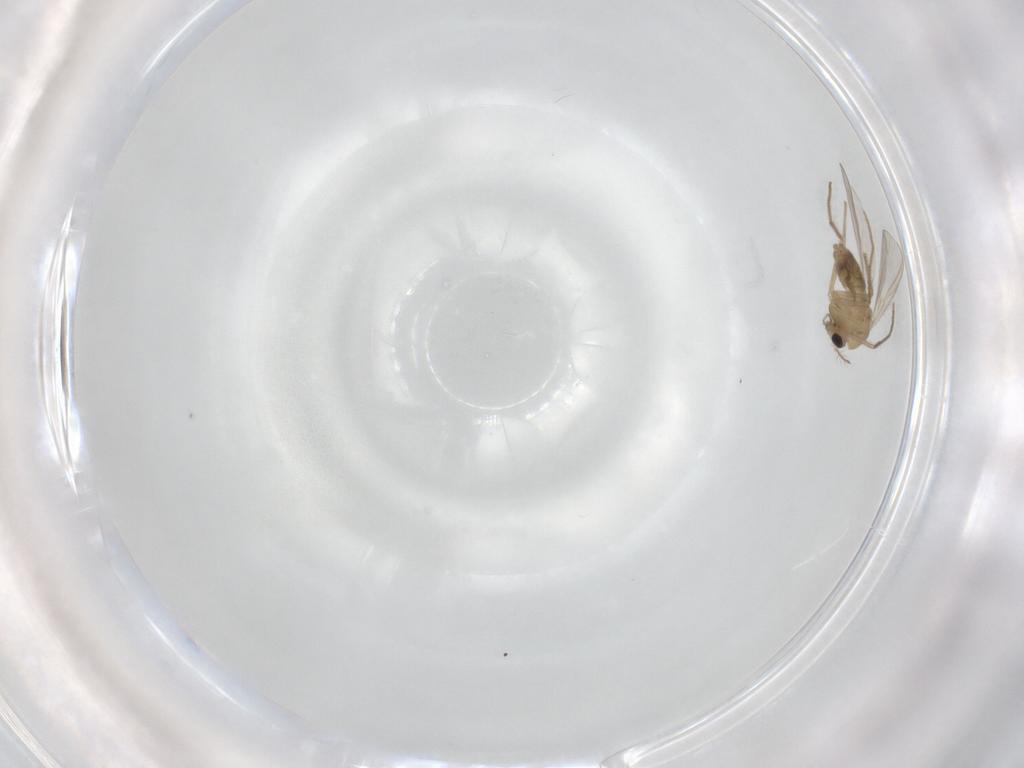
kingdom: Animalia
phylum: Arthropoda
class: Insecta
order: Diptera
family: Chironomidae
